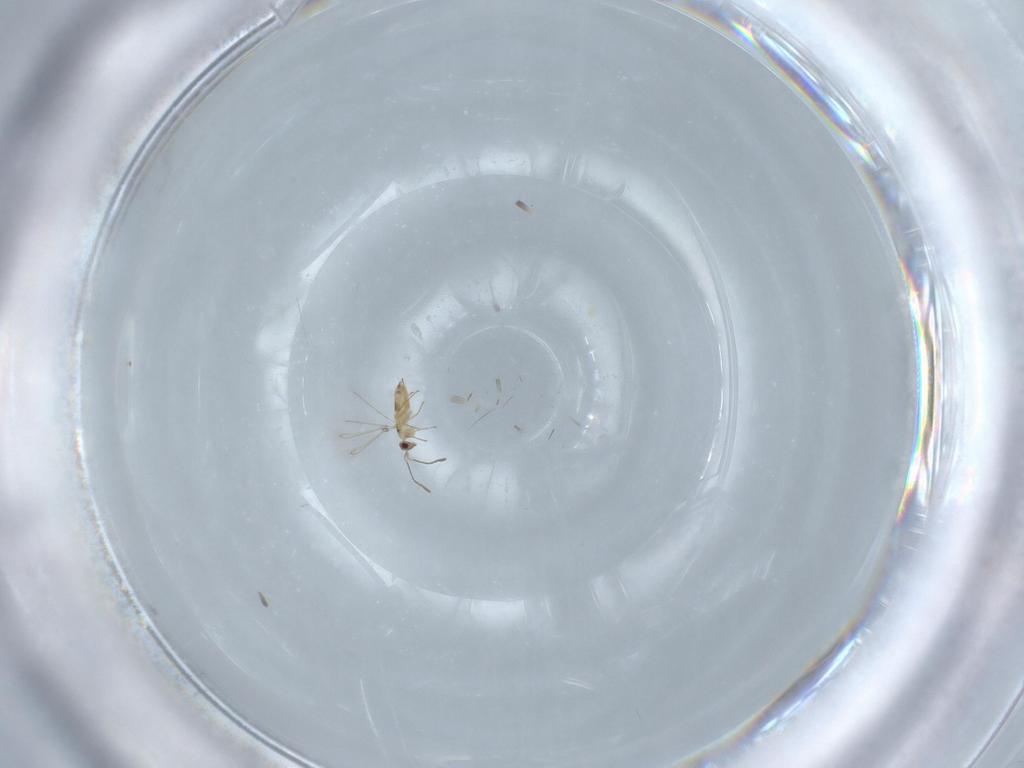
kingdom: Animalia
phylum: Arthropoda
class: Insecta
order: Hymenoptera
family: Mymaridae
